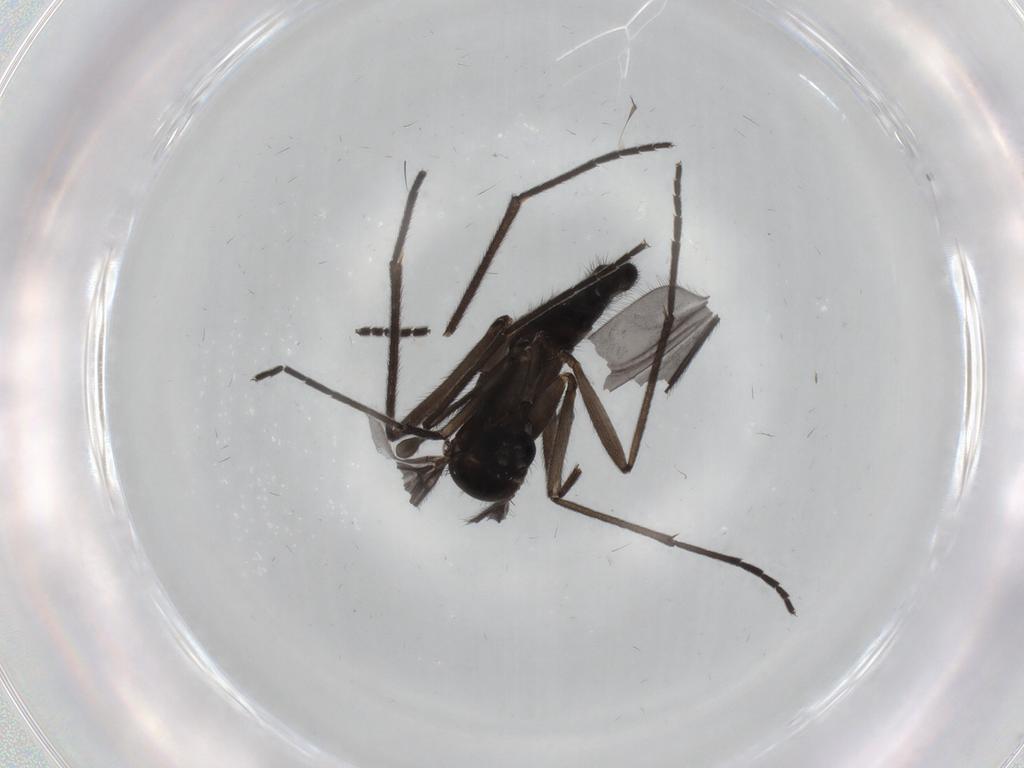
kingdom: Animalia
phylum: Arthropoda
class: Insecta
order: Diptera
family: Sciaridae
